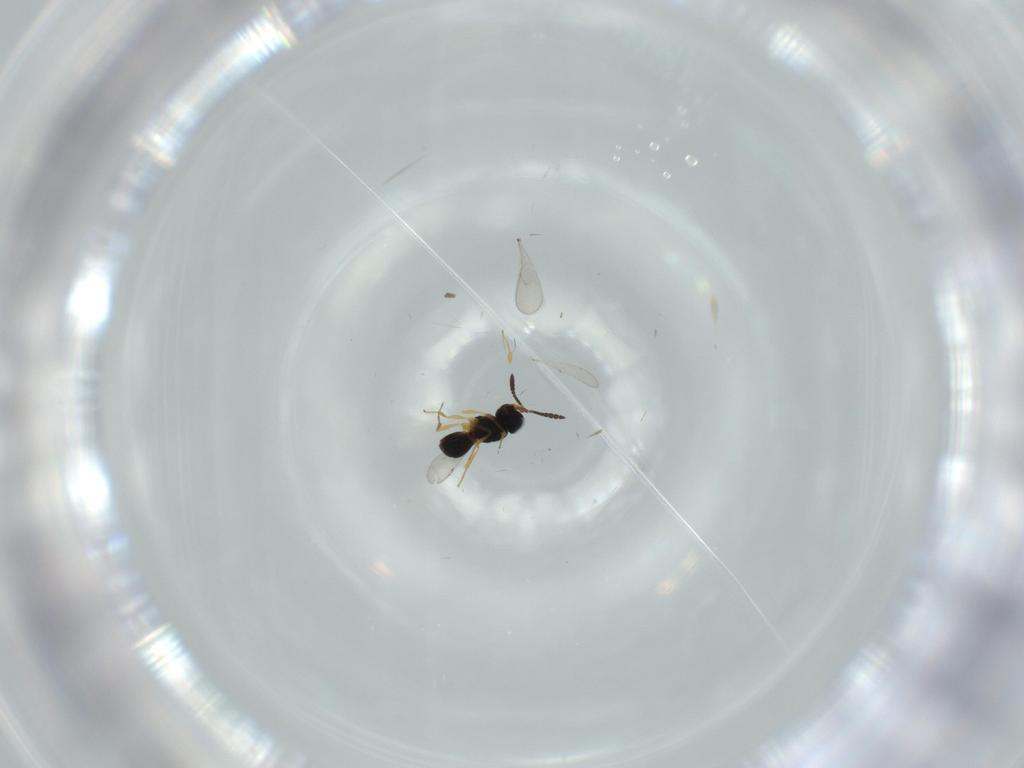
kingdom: Animalia
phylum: Arthropoda
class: Insecta
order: Hymenoptera
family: Scelionidae
